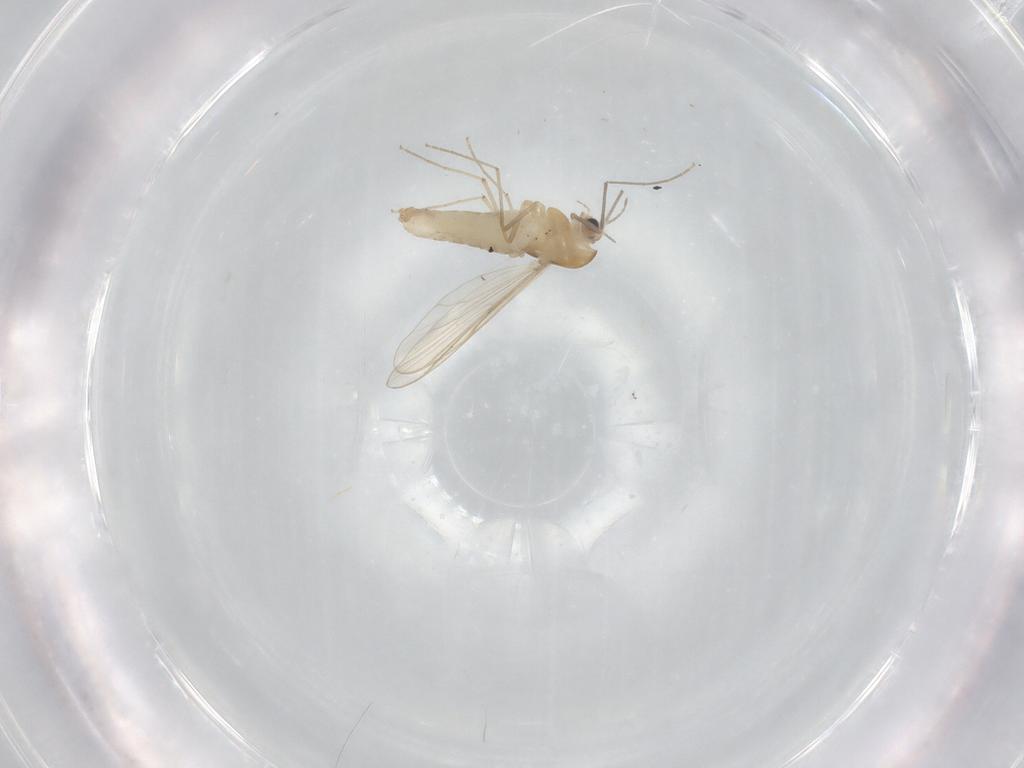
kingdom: Animalia
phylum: Arthropoda
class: Insecta
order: Diptera
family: Chironomidae
